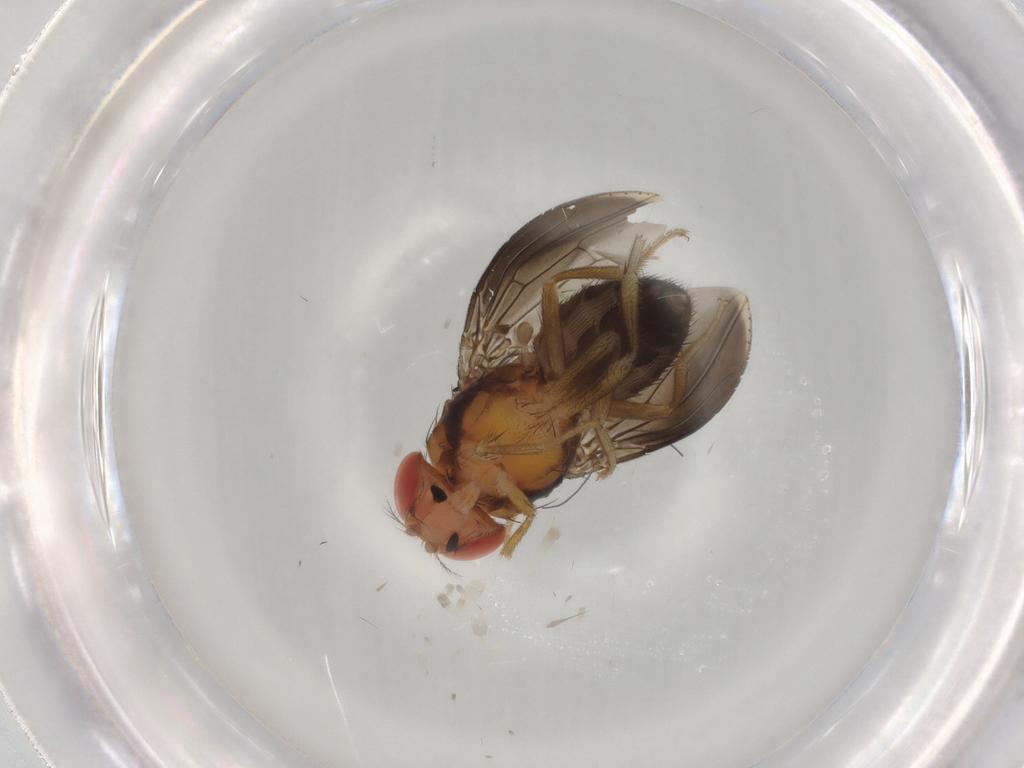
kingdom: Animalia
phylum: Arthropoda
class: Insecta
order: Diptera
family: Drosophilidae
